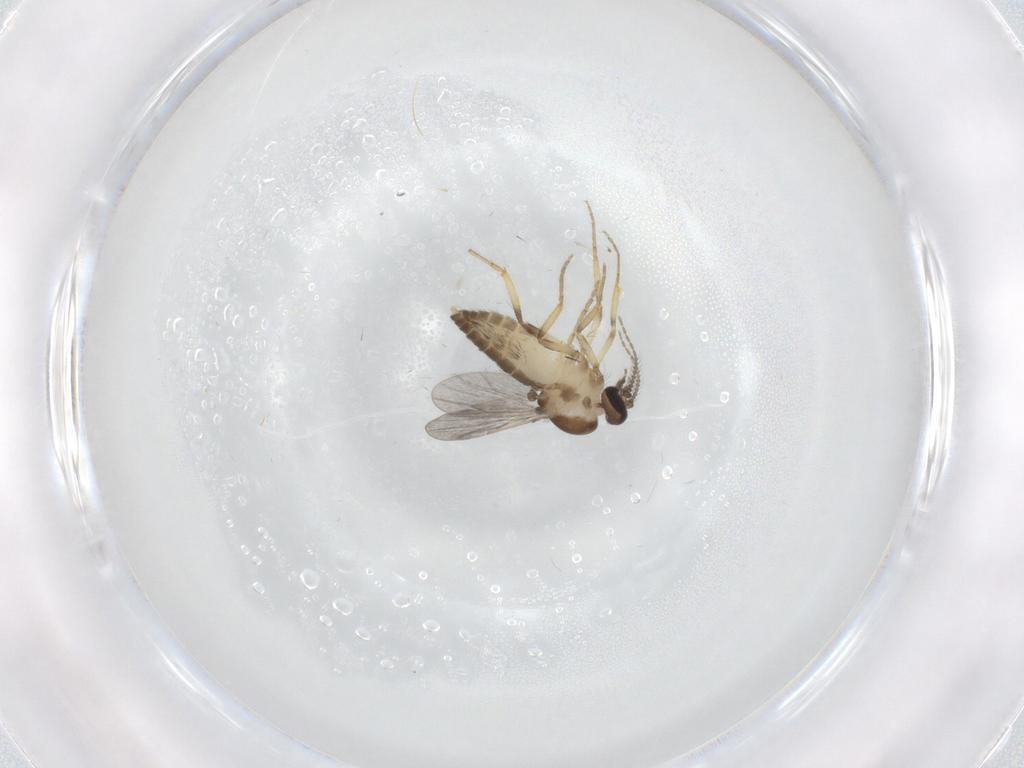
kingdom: Animalia
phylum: Arthropoda
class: Insecta
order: Diptera
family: Ceratopogonidae
